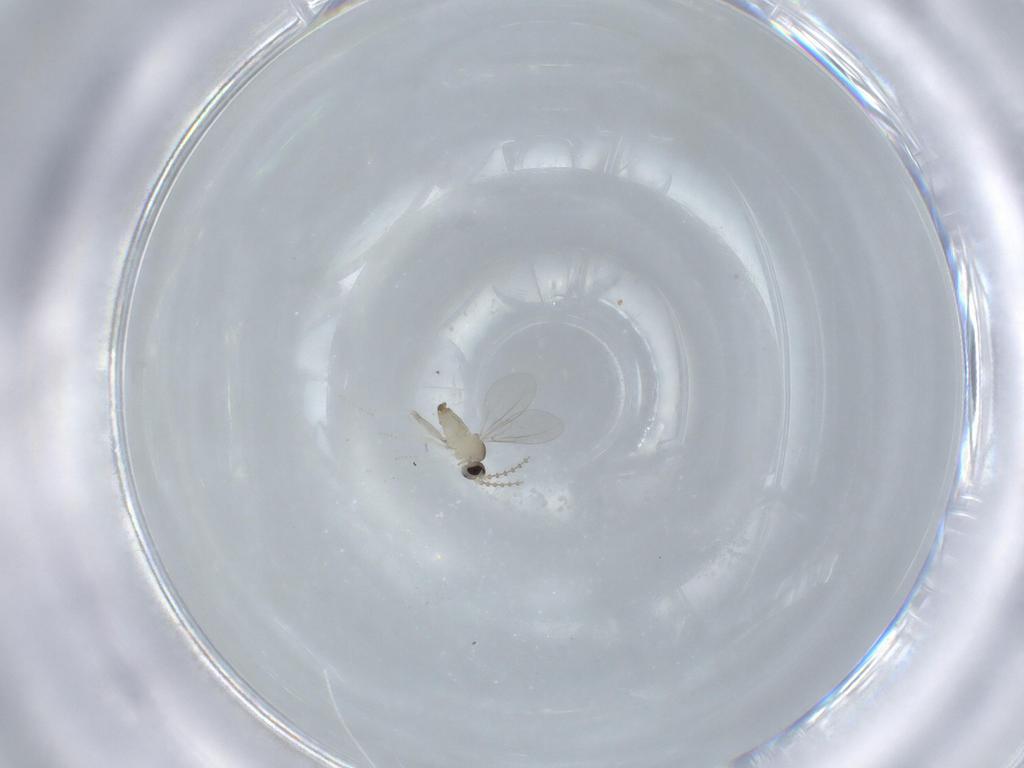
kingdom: Animalia
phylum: Arthropoda
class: Insecta
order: Diptera
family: Cecidomyiidae
